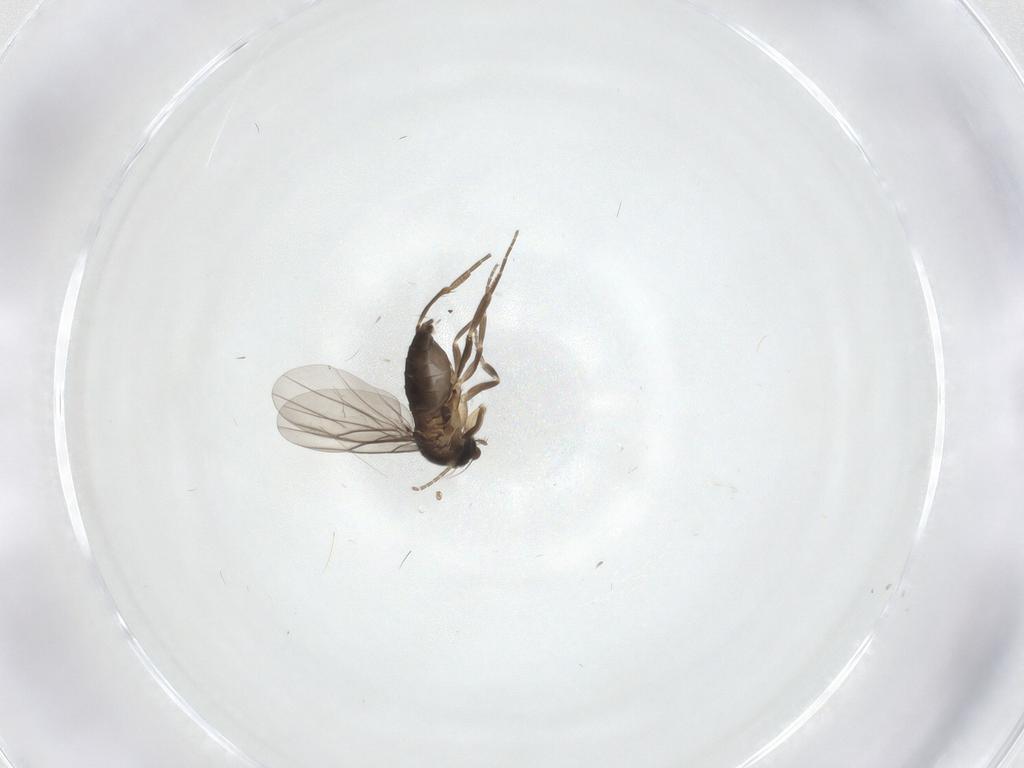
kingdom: Animalia
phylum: Arthropoda
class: Insecta
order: Diptera
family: Phoridae
